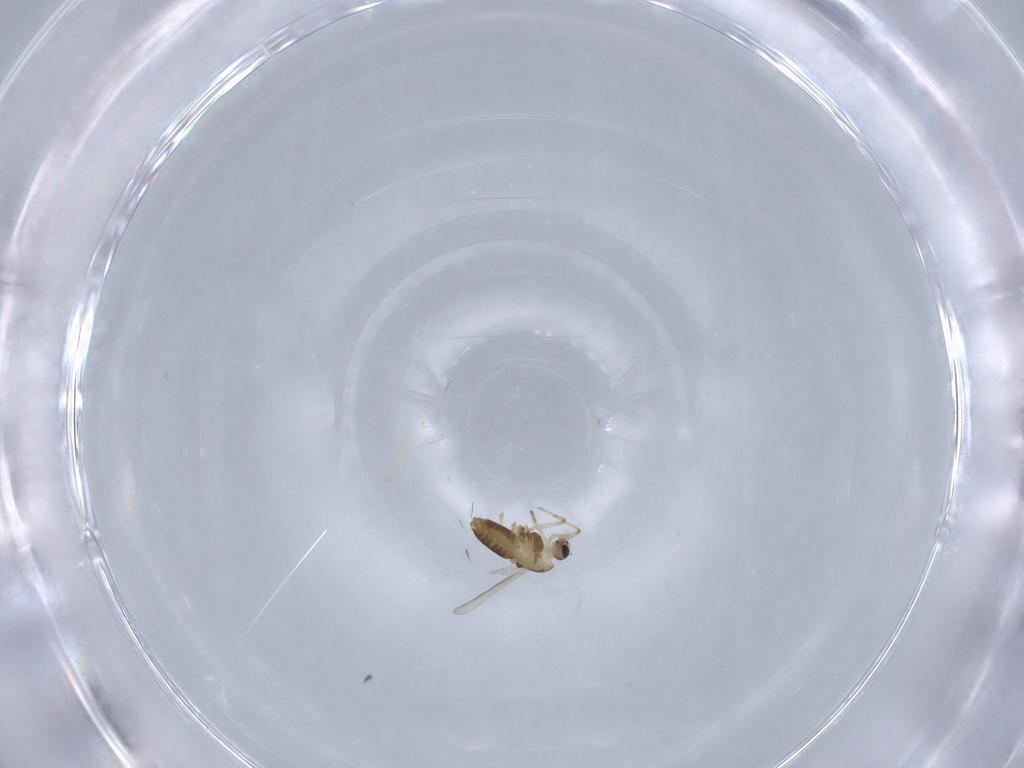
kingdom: Animalia
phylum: Arthropoda
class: Insecta
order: Diptera
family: Chironomidae
